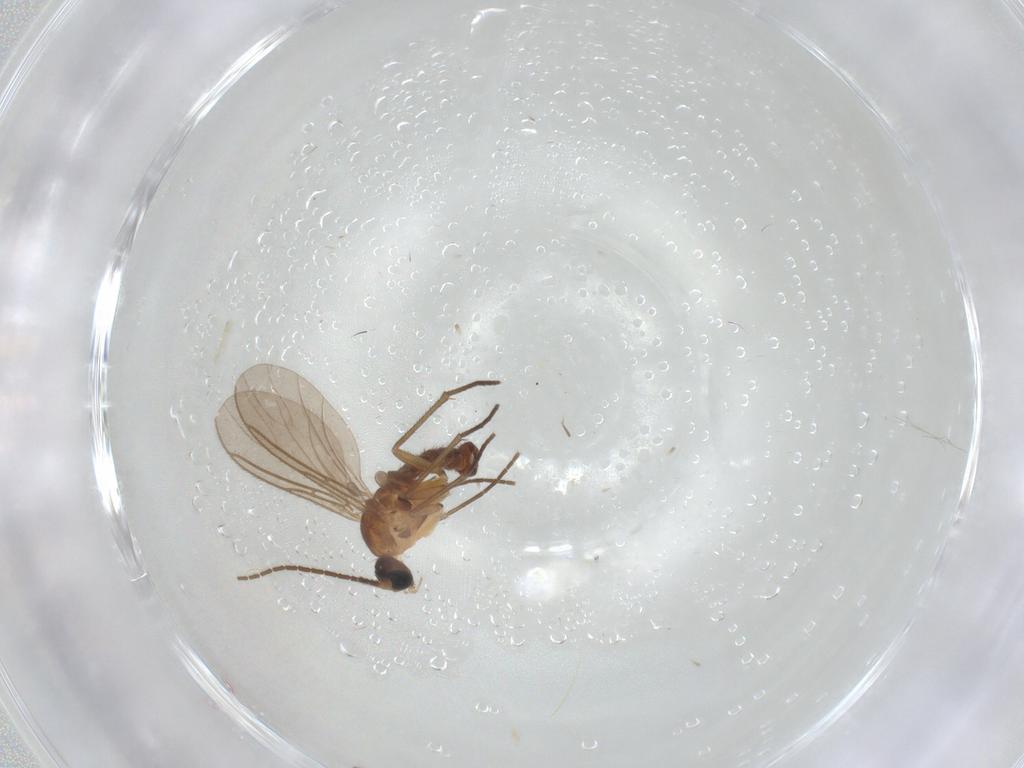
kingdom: Animalia
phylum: Arthropoda
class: Insecta
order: Diptera
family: Sciaridae
